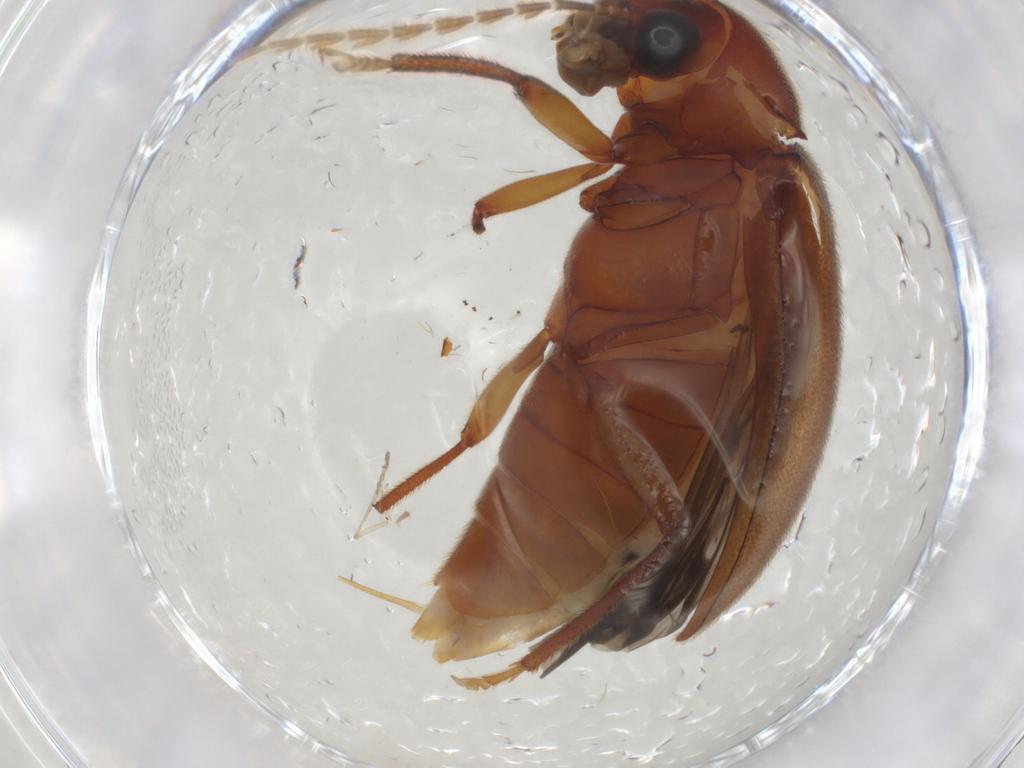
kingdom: Animalia
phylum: Arthropoda
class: Insecta
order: Coleoptera
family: Ptilodactylidae
